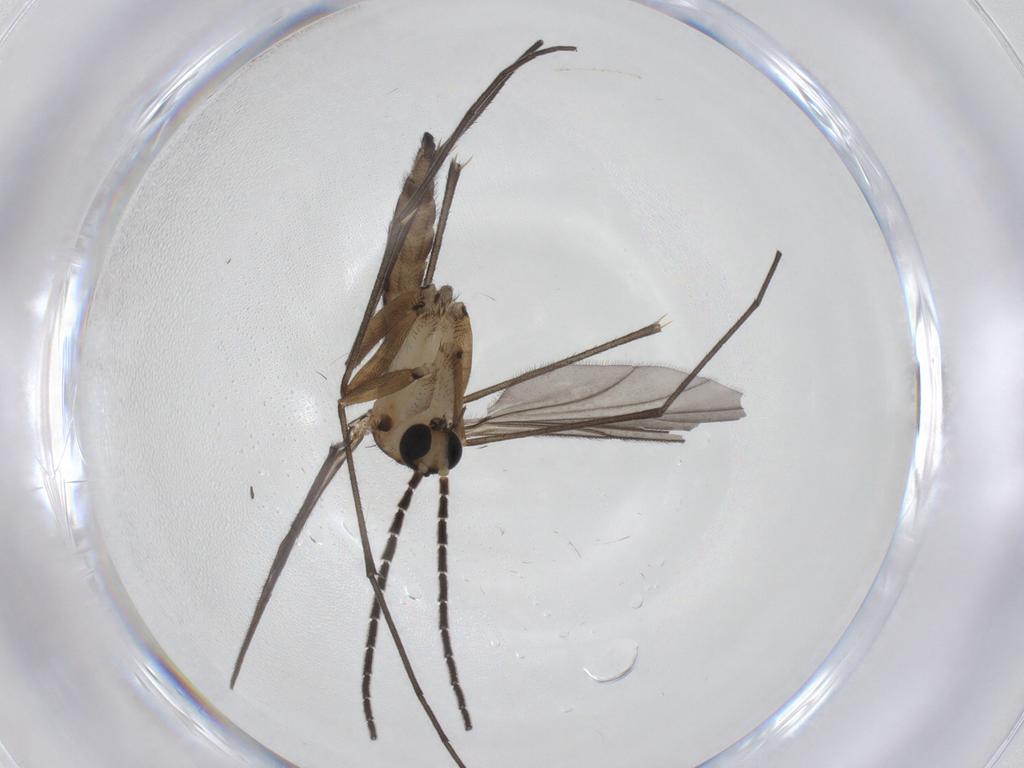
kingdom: Animalia
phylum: Arthropoda
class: Insecta
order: Diptera
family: Sciaridae
